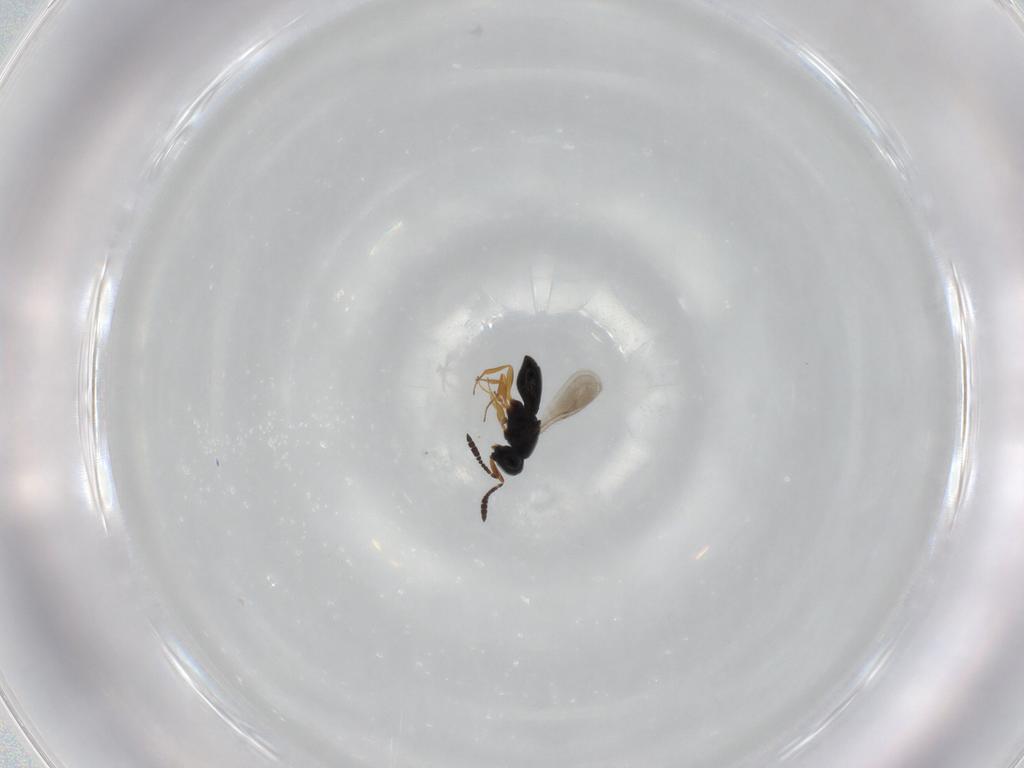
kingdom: Animalia
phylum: Arthropoda
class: Insecta
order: Hymenoptera
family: Scelionidae
